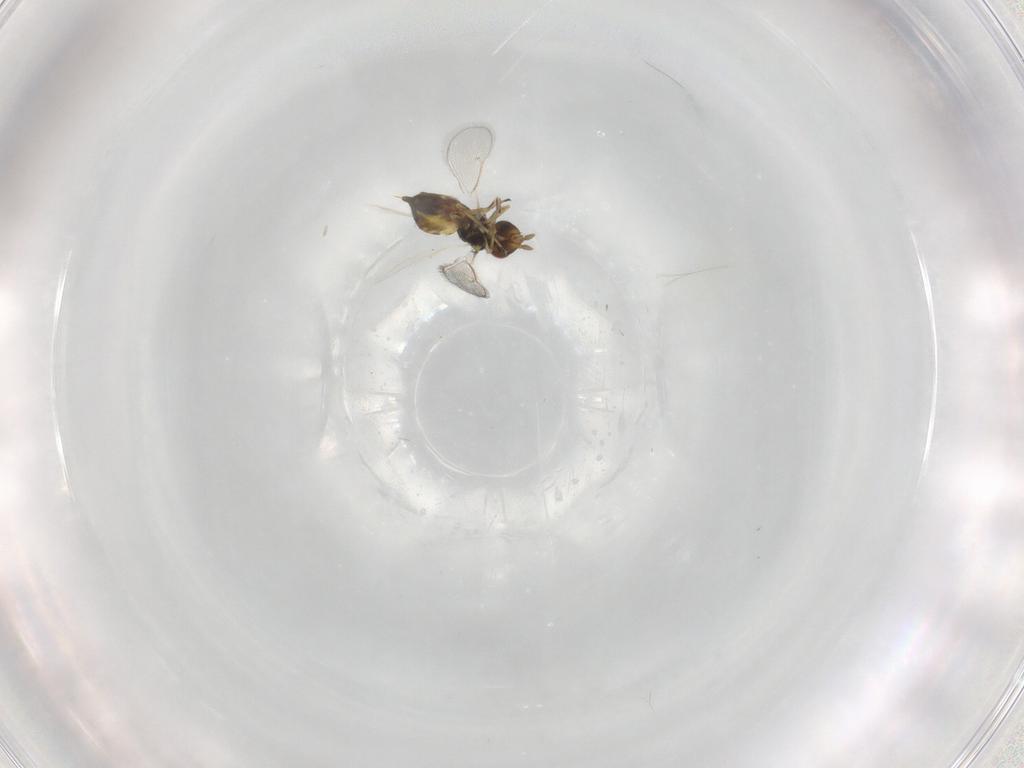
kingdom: Animalia
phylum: Arthropoda
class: Insecta
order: Hymenoptera
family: Eulophidae
